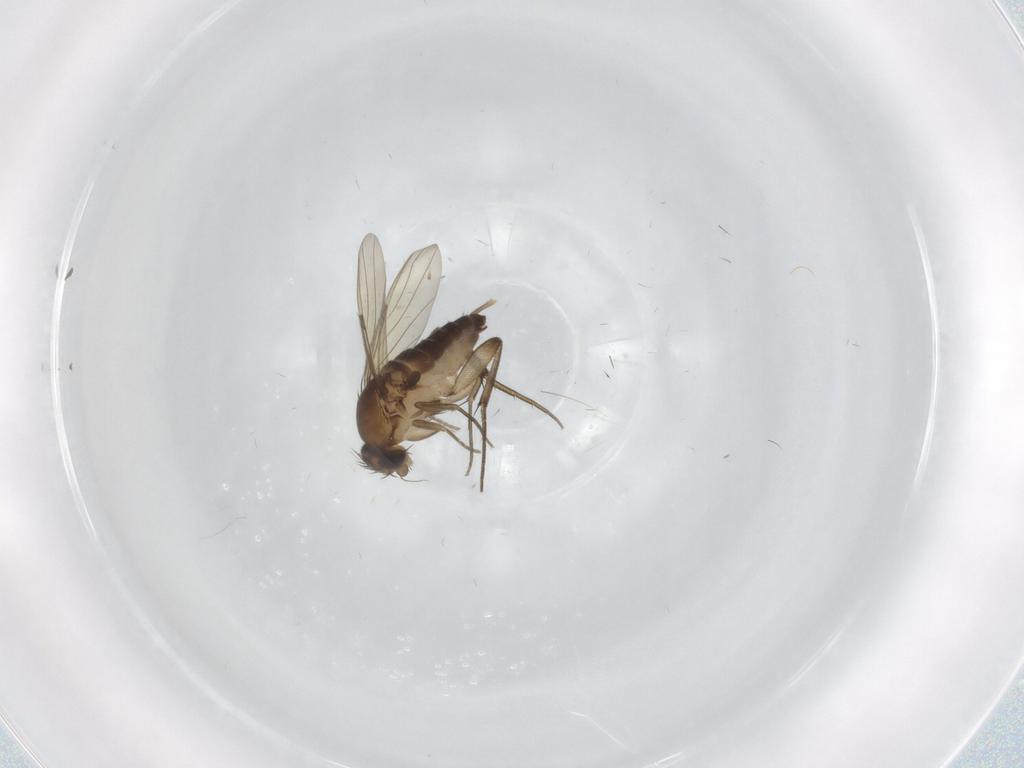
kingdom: Animalia
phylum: Arthropoda
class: Insecta
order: Diptera
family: Phoridae
